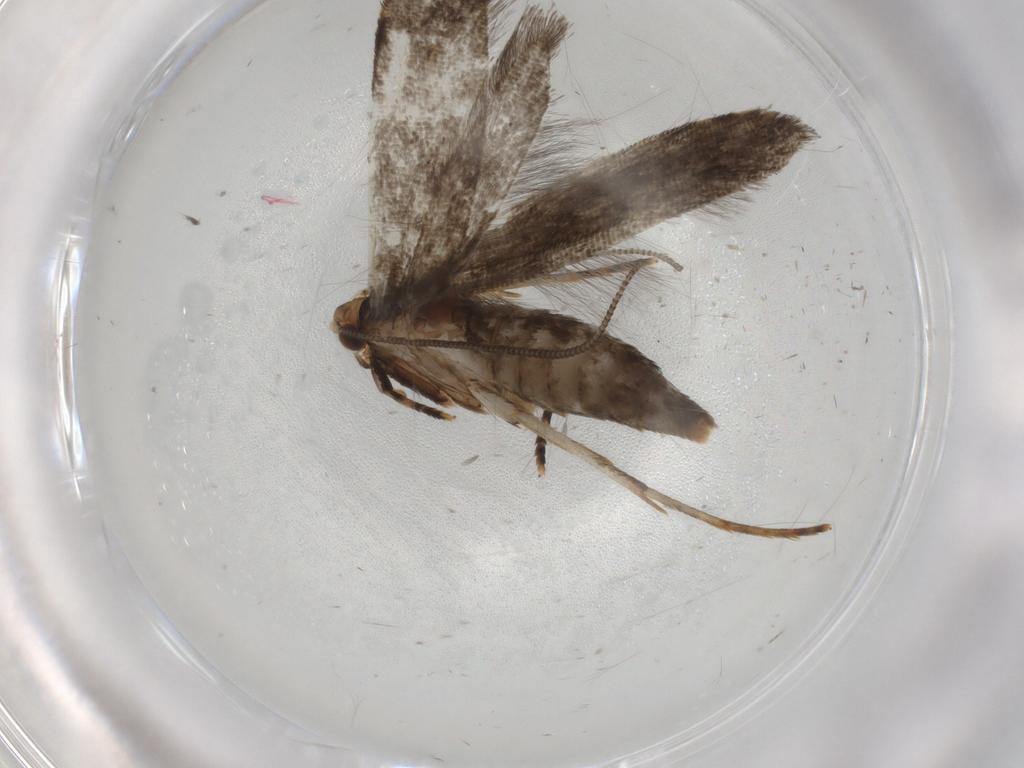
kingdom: Animalia
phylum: Arthropoda
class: Insecta
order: Lepidoptera
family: Tineidae
